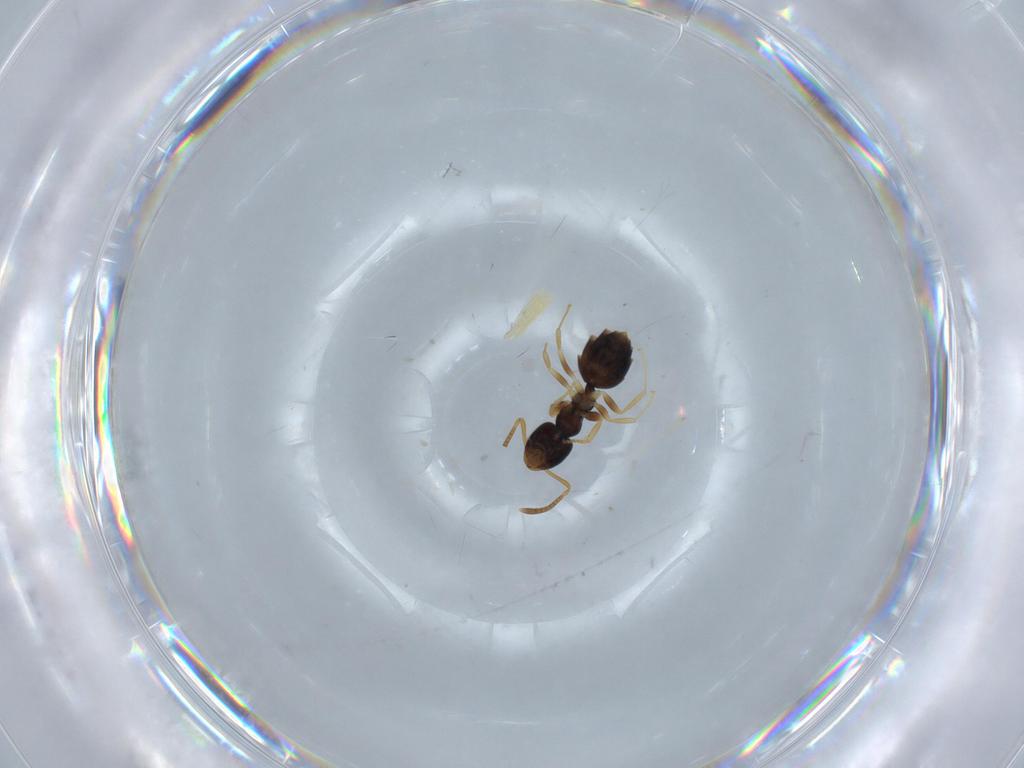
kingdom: Animalia
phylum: Arthropoda
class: Insecta
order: Hymenoptera
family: Formicidae
